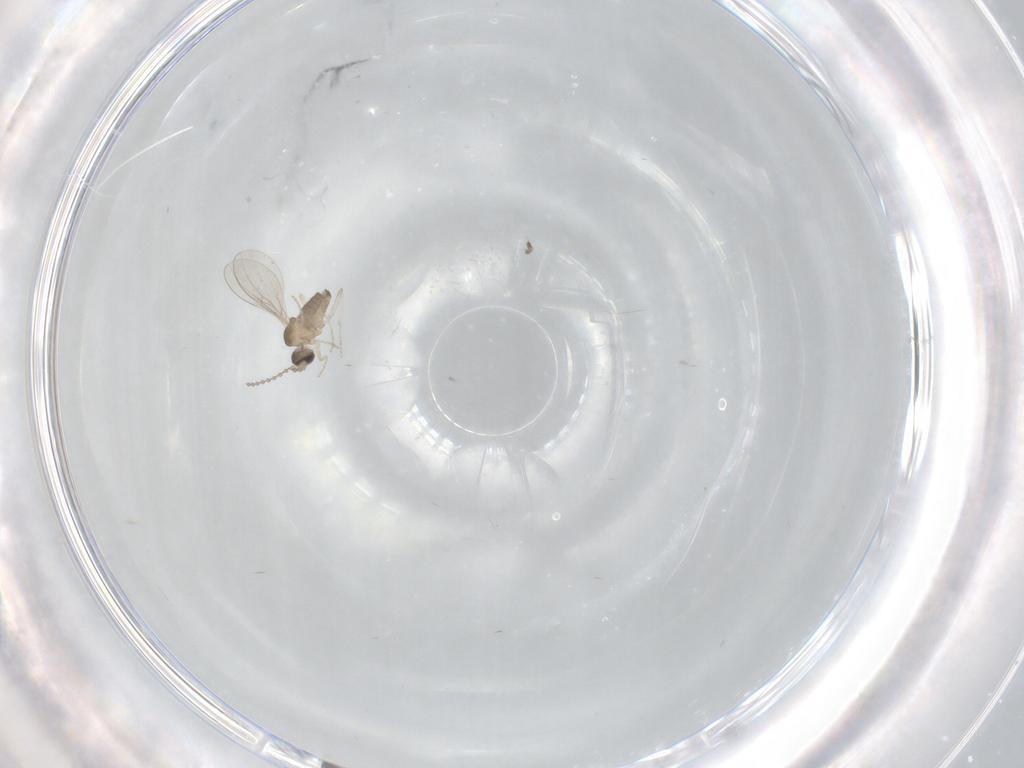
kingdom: Animalia
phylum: Arthropoda
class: Insecta
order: Diptera
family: Cecidomyiidae
